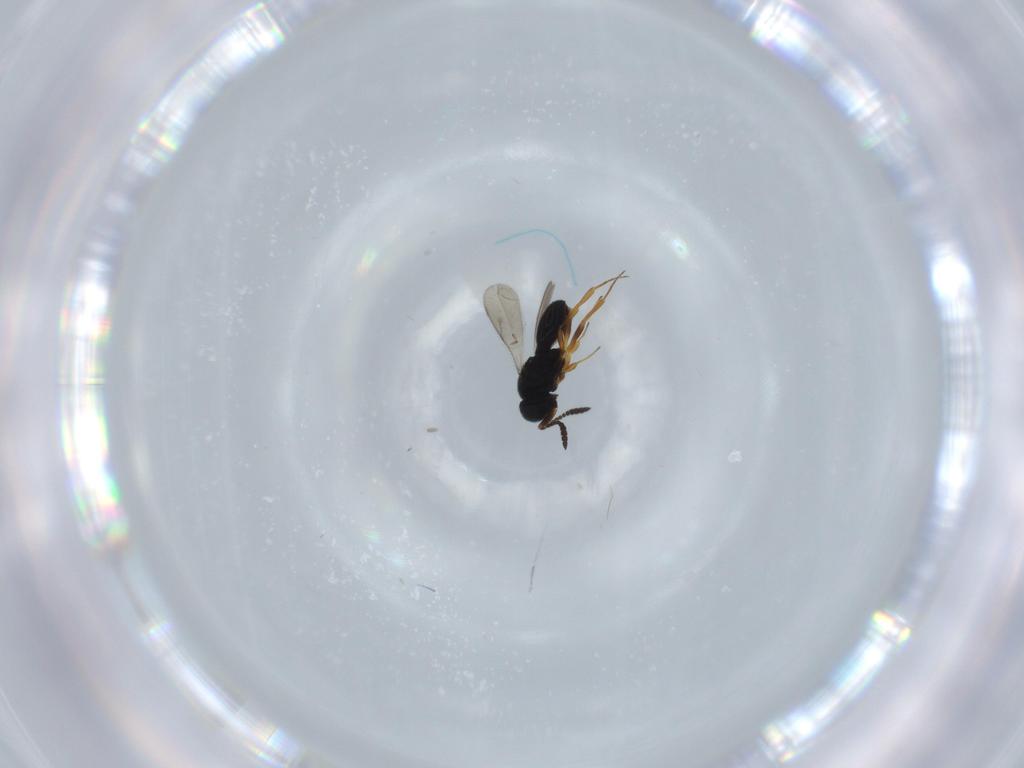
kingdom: Animalia
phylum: Arthropoda
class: Insecta
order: Hymenoptera
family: Scelionidae
